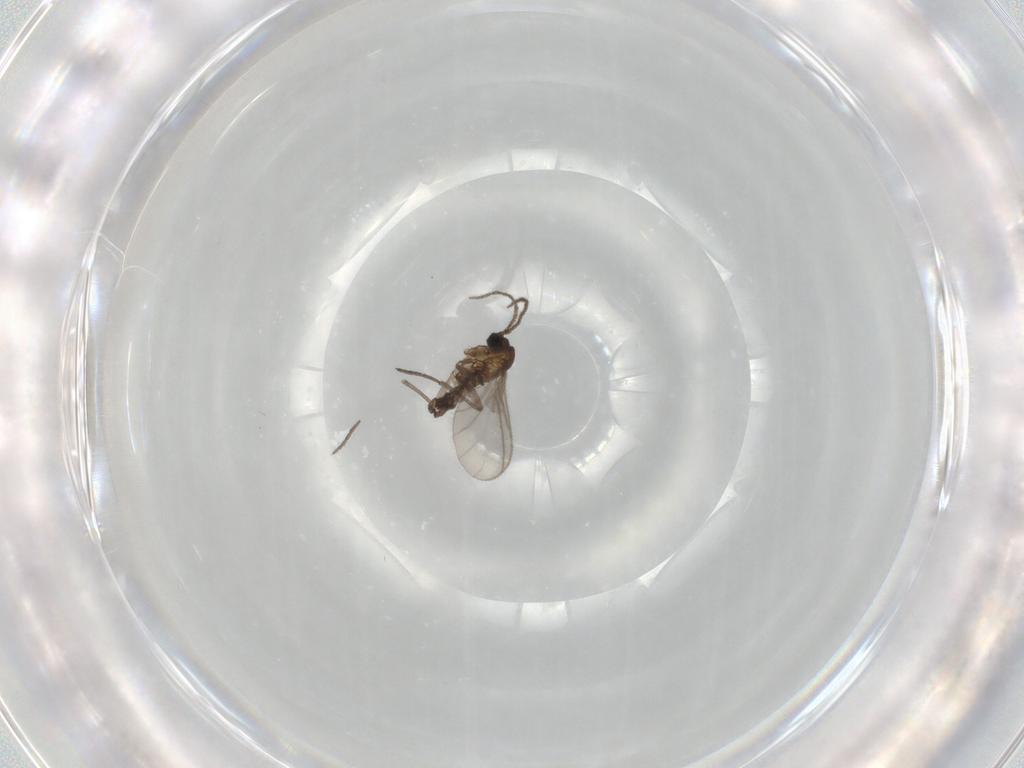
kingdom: Animalia
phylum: Arthropoda
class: Insecta
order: Diptera
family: Sciaridae
